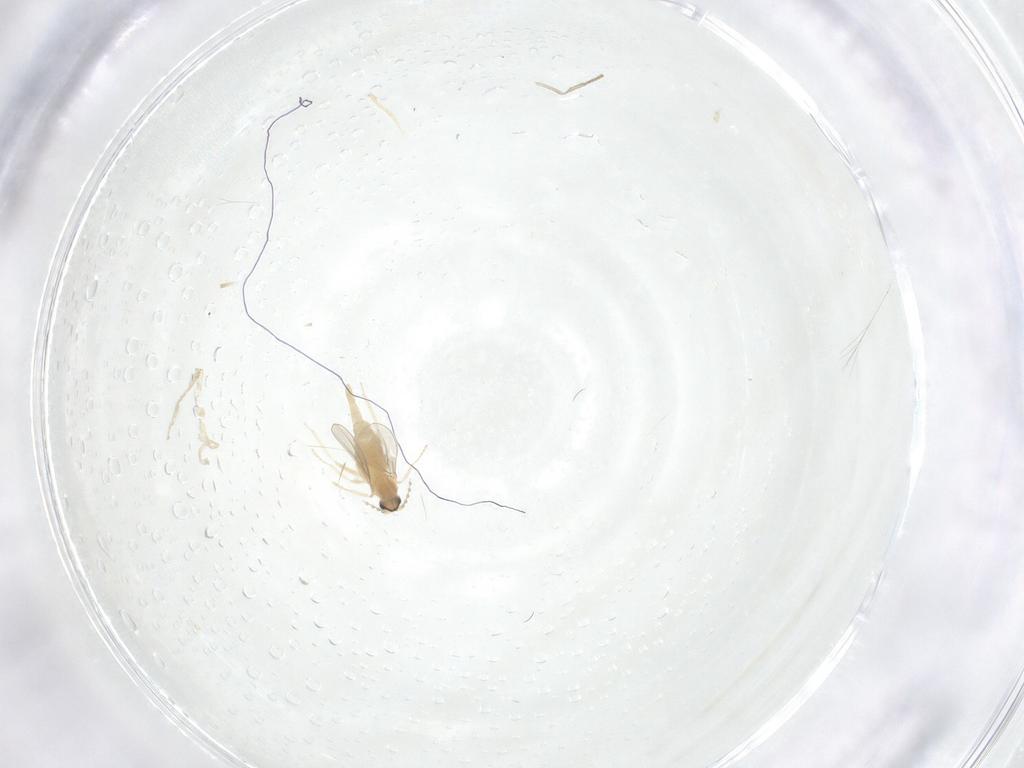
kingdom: Animalia
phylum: Arthropoda
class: Insecta
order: Diptera
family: Cecidomyiidae
